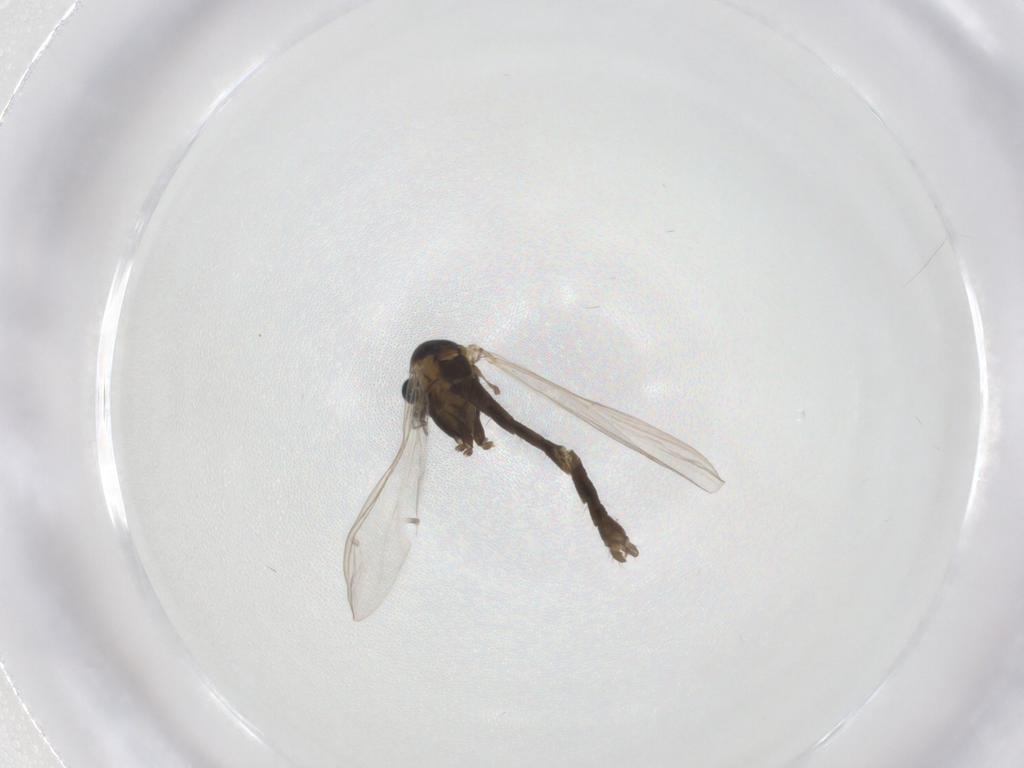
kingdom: Animalia
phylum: Arthropoda
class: Insecta
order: Diptera
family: Chironomidae
